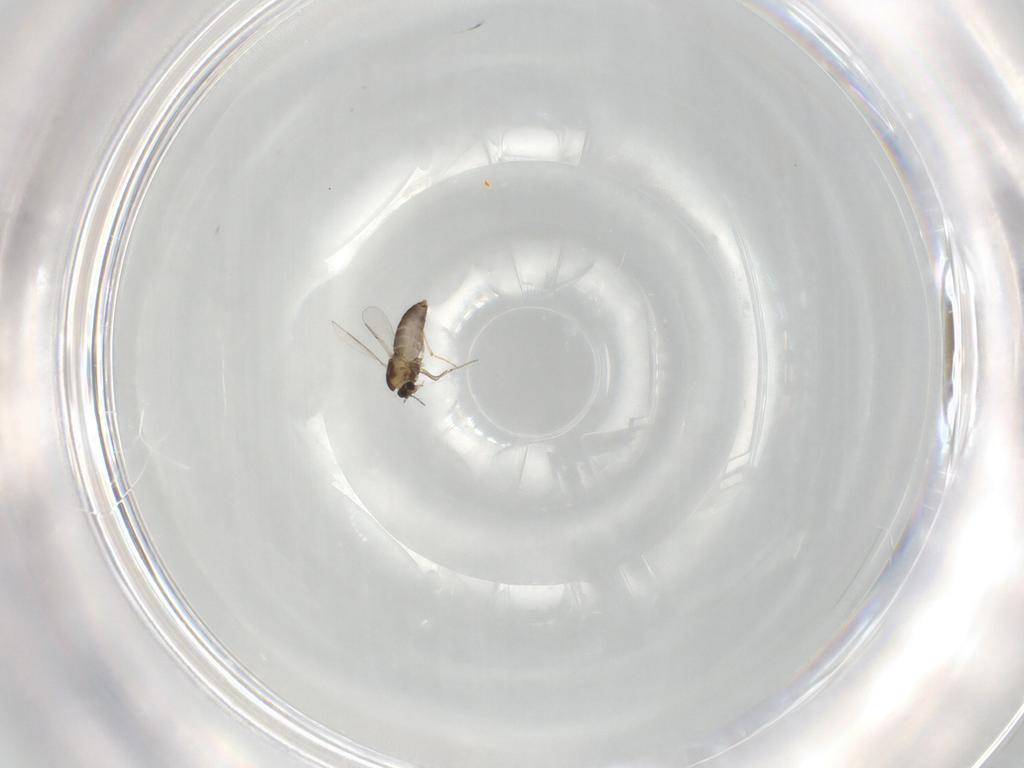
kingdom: Animalia
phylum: Arthropoda
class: Insecta
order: Diptera
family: Chironomidae
